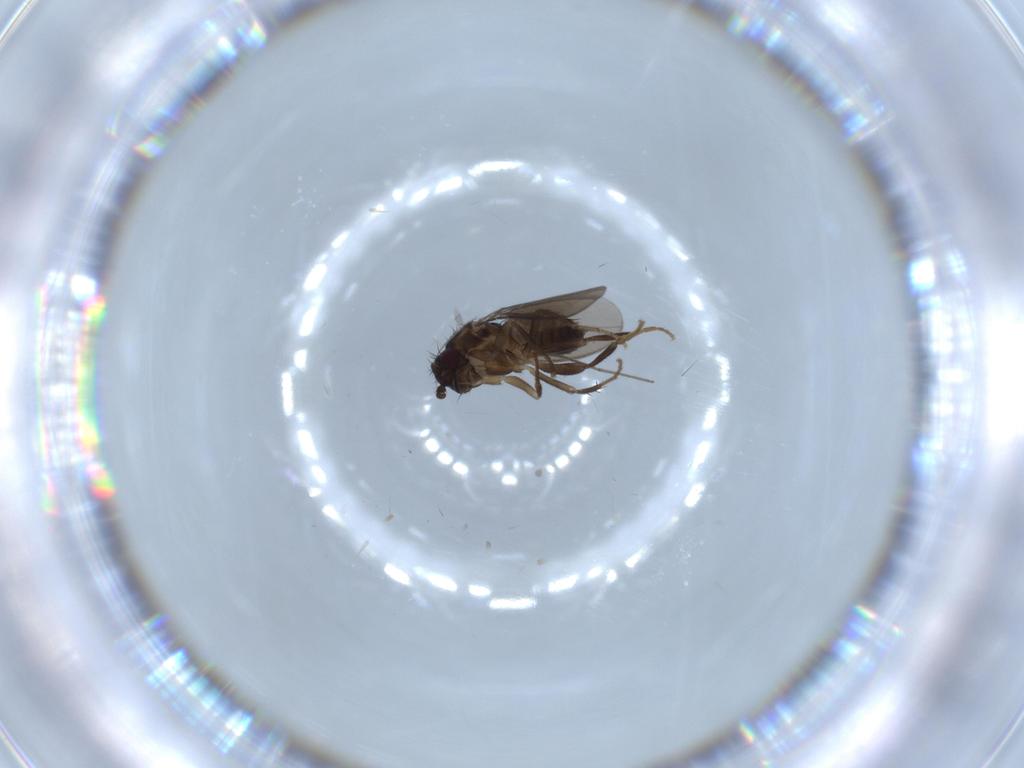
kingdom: Animalia
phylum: Arthropoda
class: Insecta
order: Diptera
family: Sphaeroceridae
